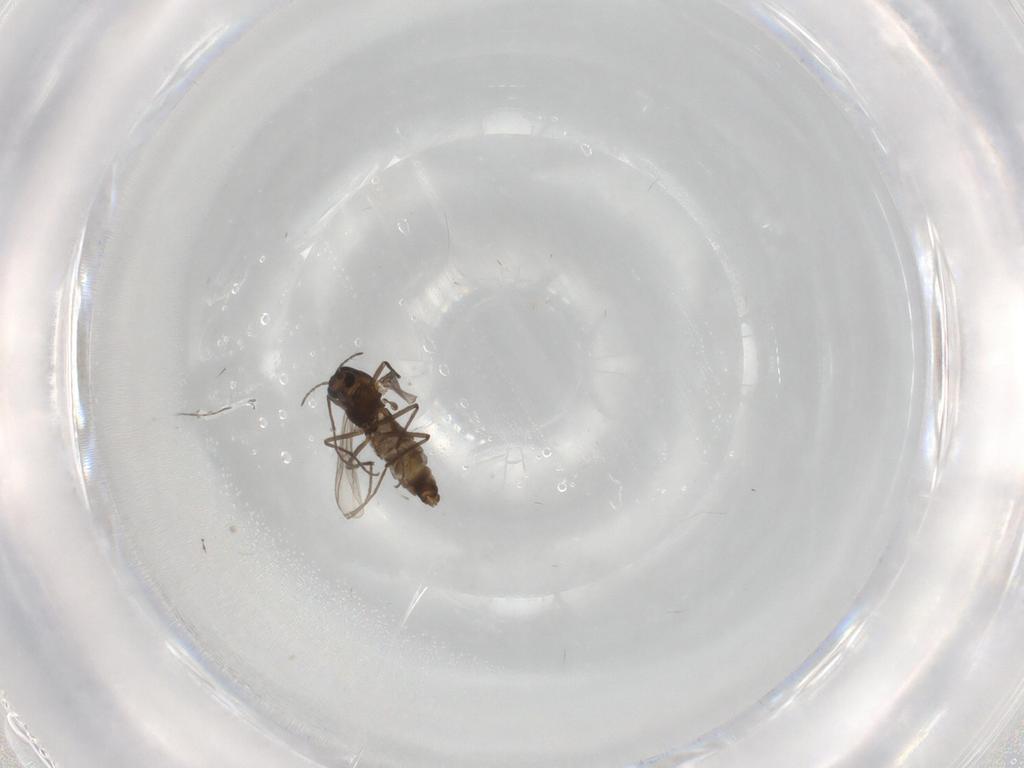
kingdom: Animalia
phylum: Arthropoda
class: Insecta
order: Diptera
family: Chironomidae
